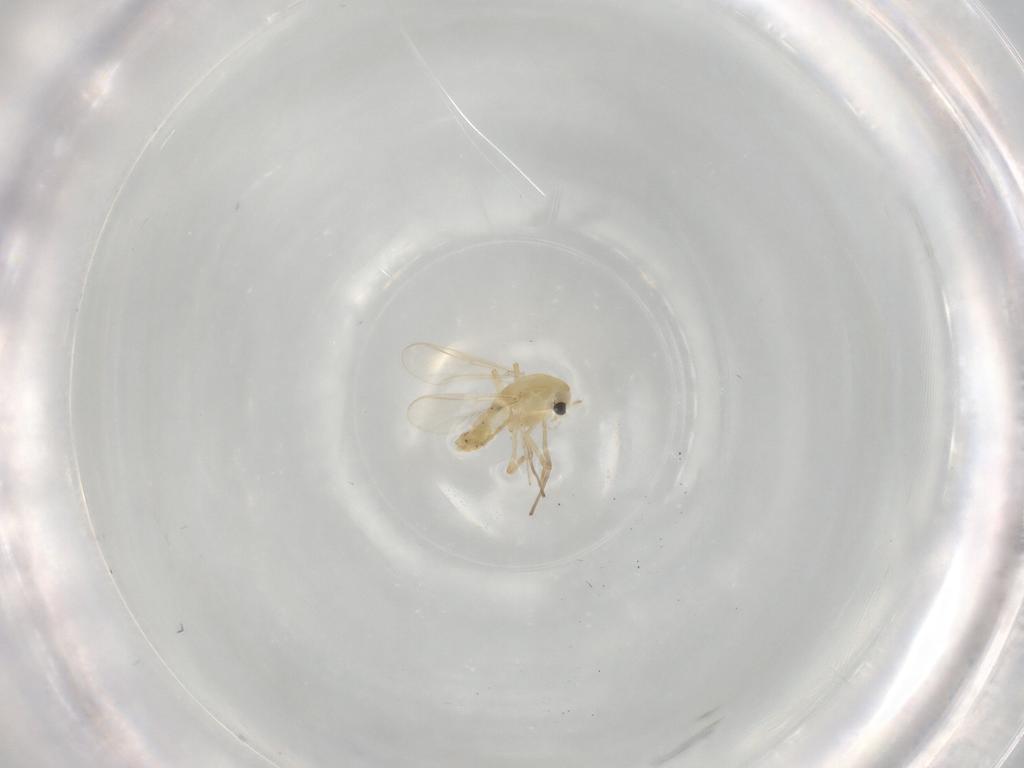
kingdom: Animalia
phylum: Arthropoda
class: Insecta
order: Diptera
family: Chironomidae
